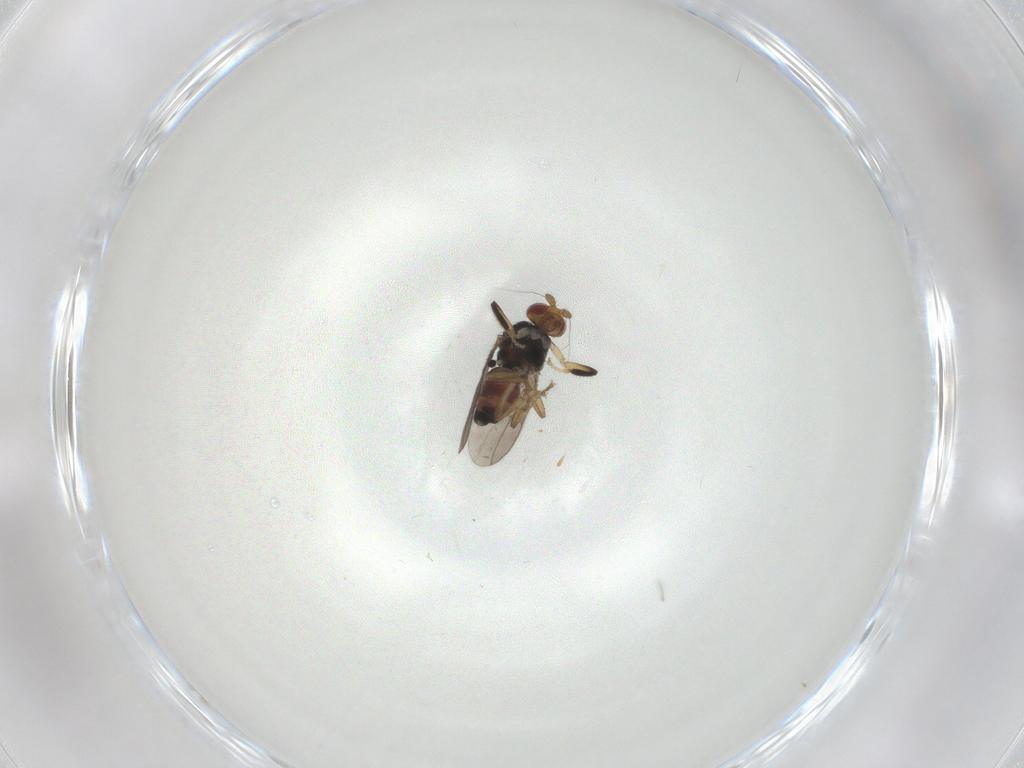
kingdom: Animalia
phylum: Arthropoda
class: Insecta
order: Diptera
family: Sphaeroceridae
